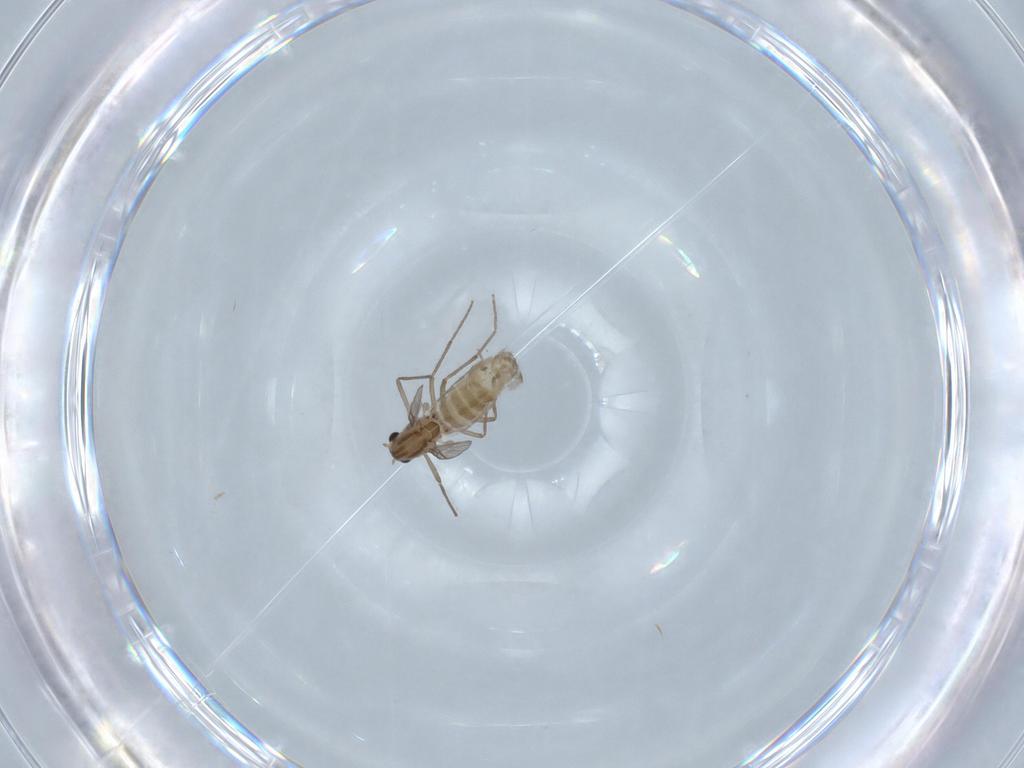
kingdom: Animalia
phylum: Arthropoda
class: Insecta
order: Diptera
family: Chironomidae
